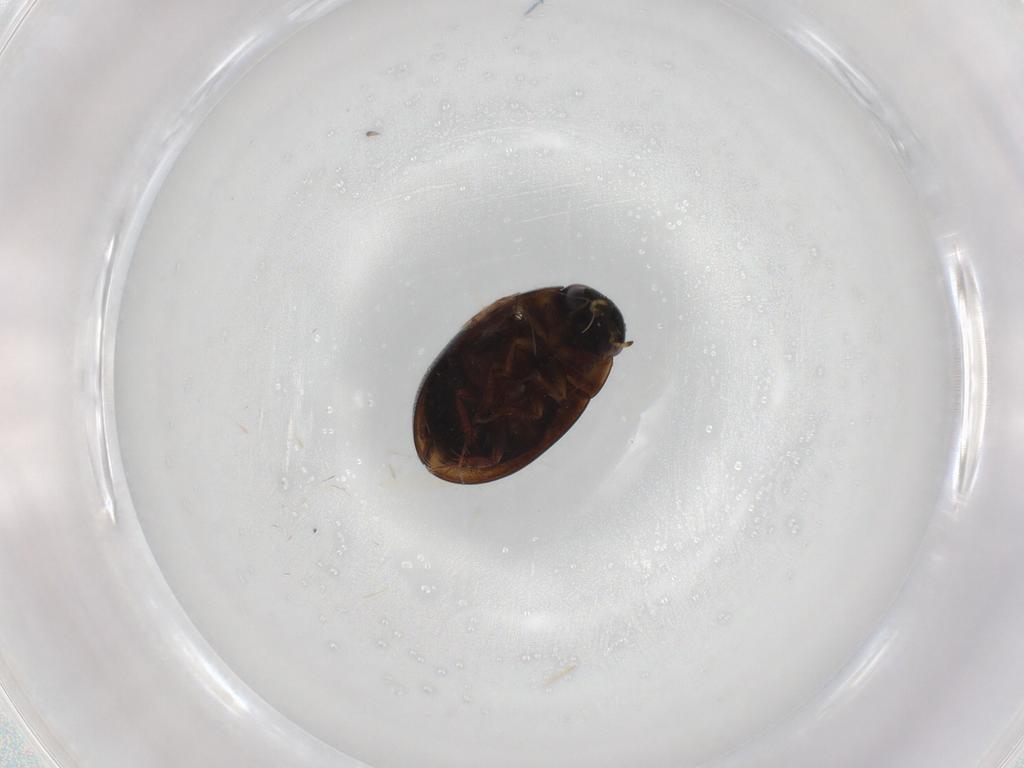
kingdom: Animalia
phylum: Arthropoda
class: Insecta
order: Coleoptera
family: Hydrophilidae
